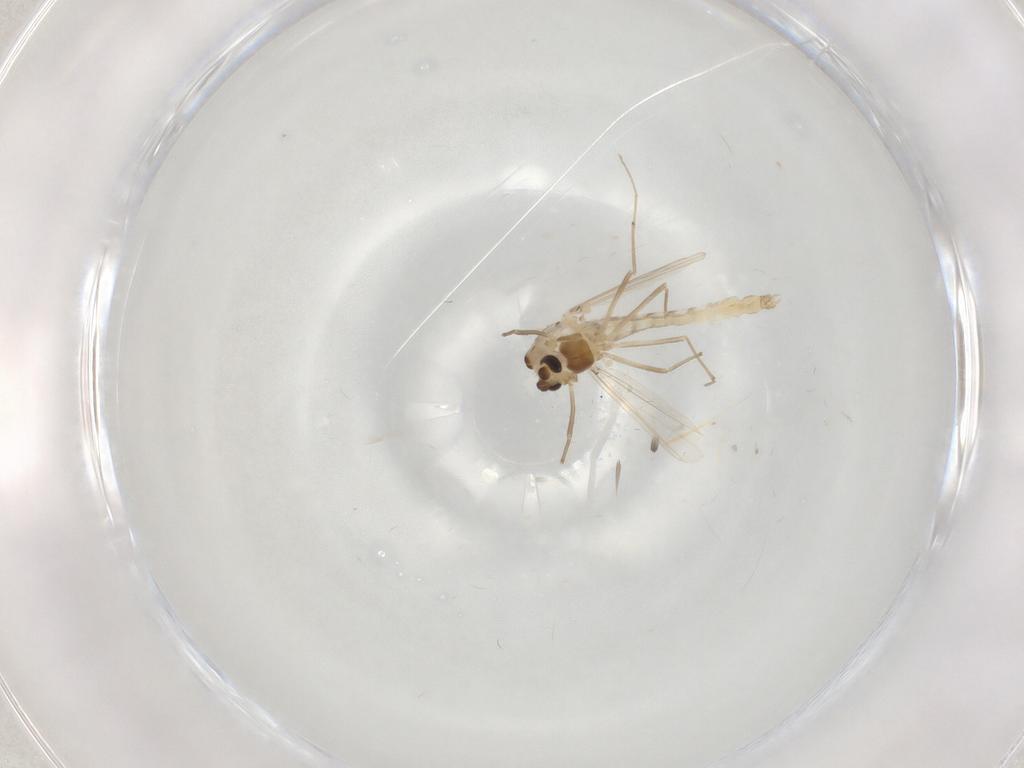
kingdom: Animalia
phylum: Arthropoda
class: Insecta
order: Diptera
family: Chironomidae
